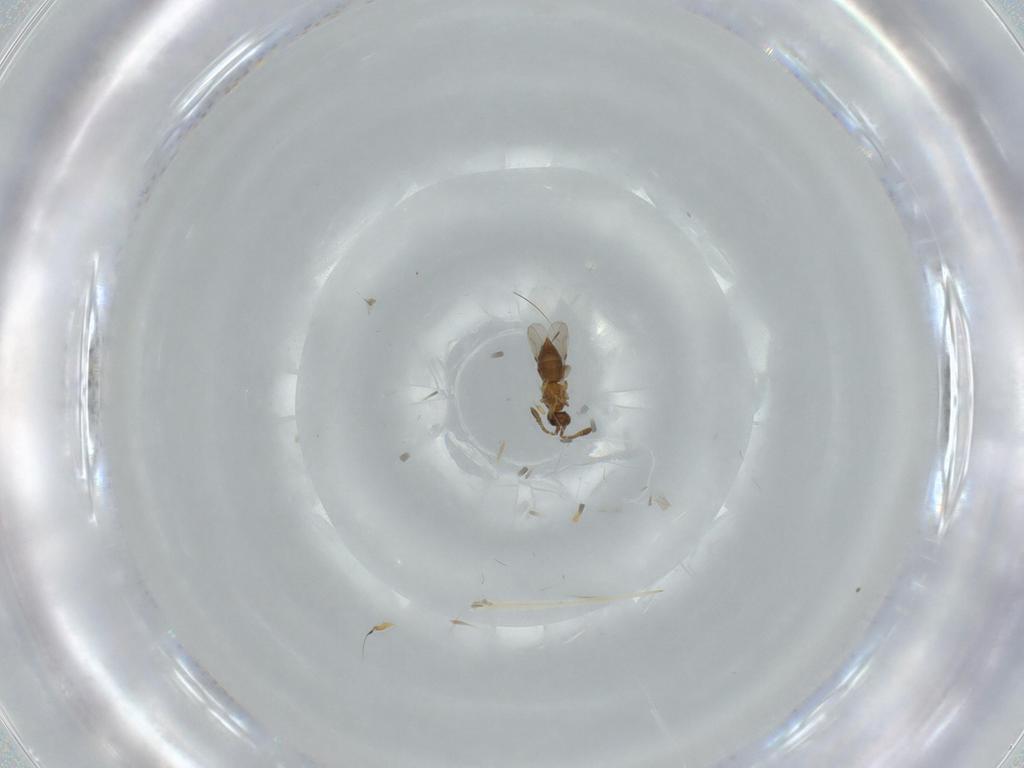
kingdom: Animalia
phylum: Arthropoda
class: Insecta
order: Hymenoptera
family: Ceraphronidae
